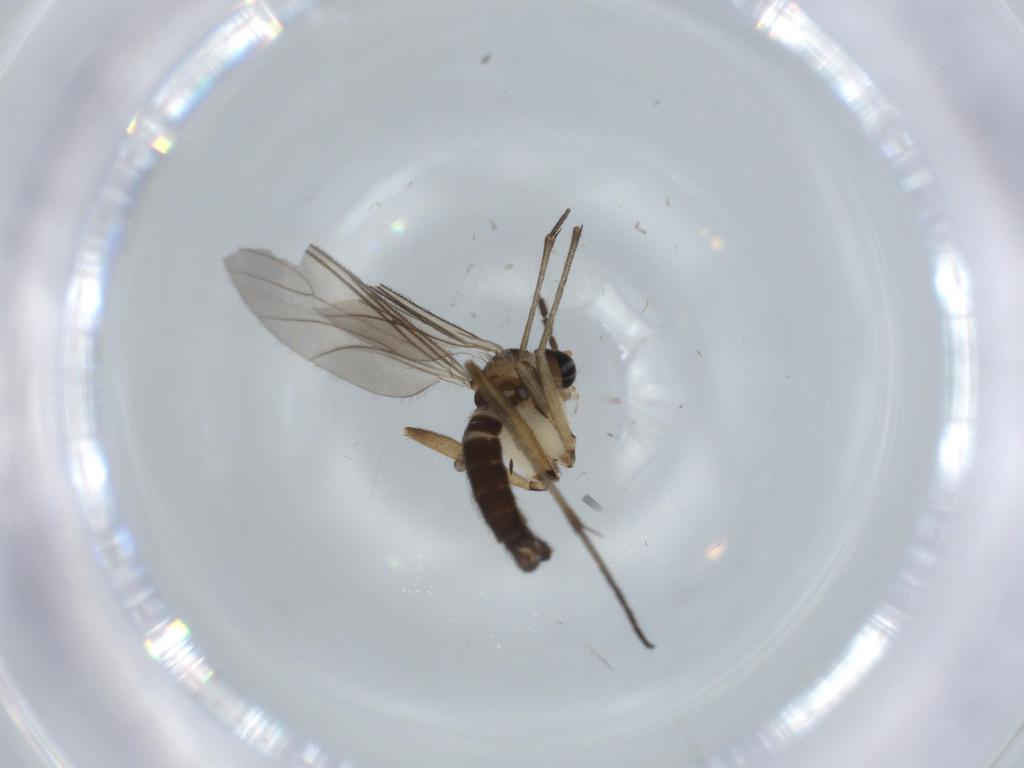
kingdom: Animalia
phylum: Arthropoda
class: Insecta
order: Diptera
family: Sciaridae
